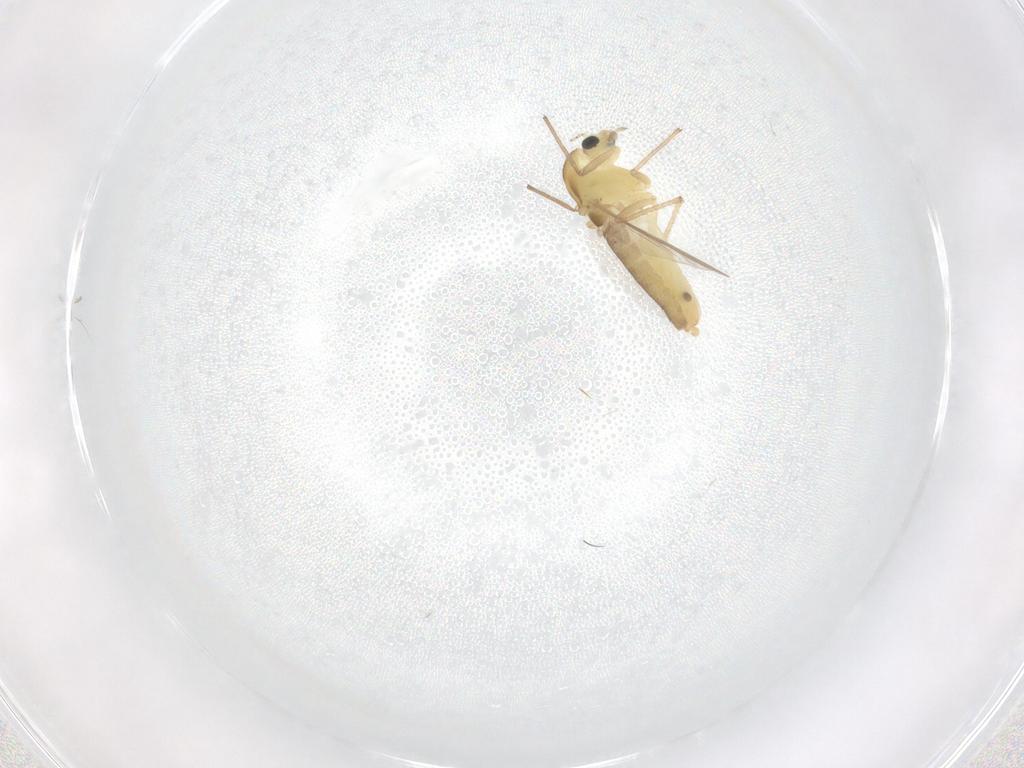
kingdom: Animalia
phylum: Arthropoda
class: Insecta
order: Diptera
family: Chironomidae
